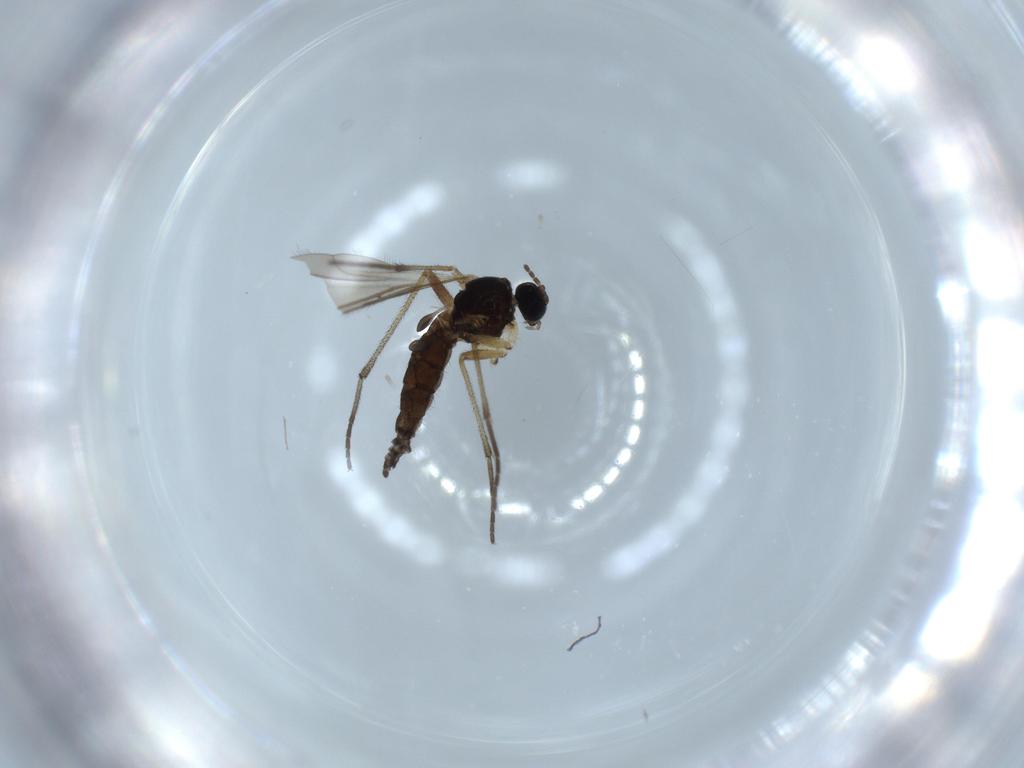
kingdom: Animalia
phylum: Arthropoda
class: Insecta
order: Diptera
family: Sciaridae
